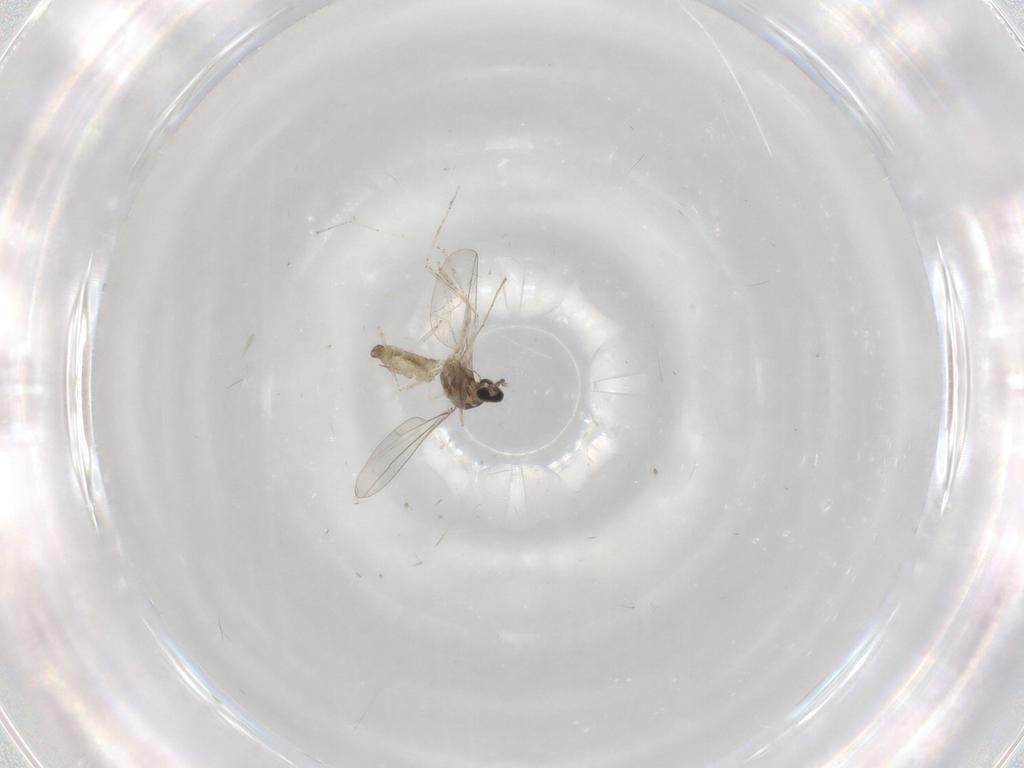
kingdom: Animalia
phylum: Arthropoda
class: Insecta
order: Diptera
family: Cecidomyiidae
